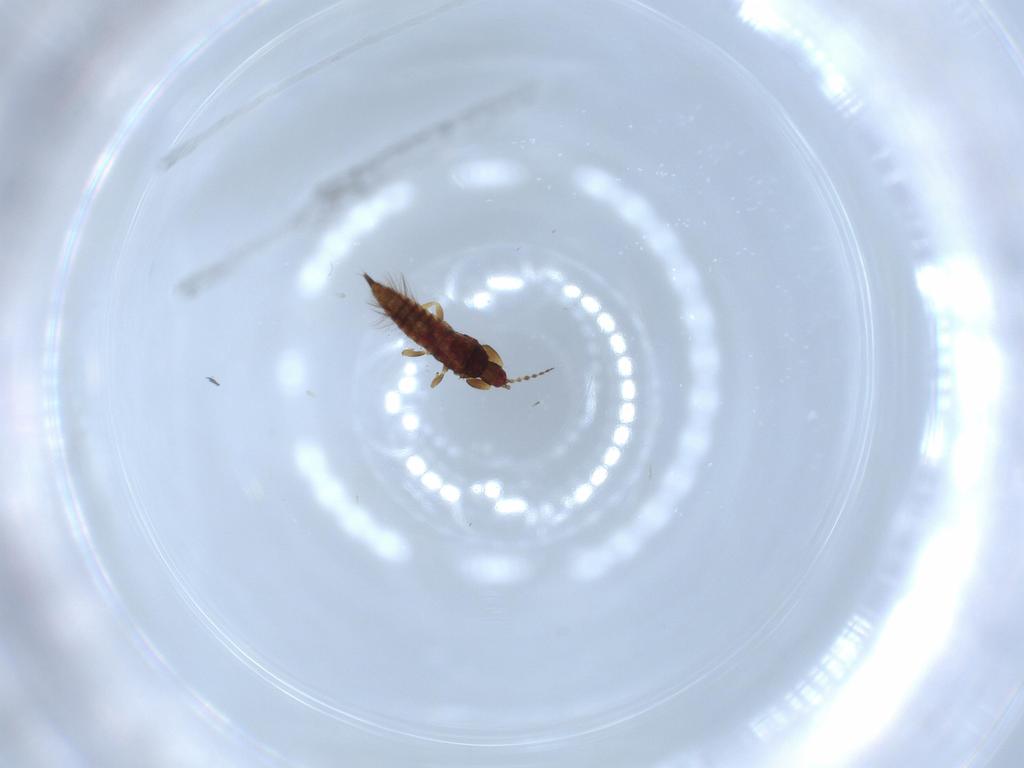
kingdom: Animalia
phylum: Arthropoda
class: Insecta
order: Thysanoptera
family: Phlaeothripidae
